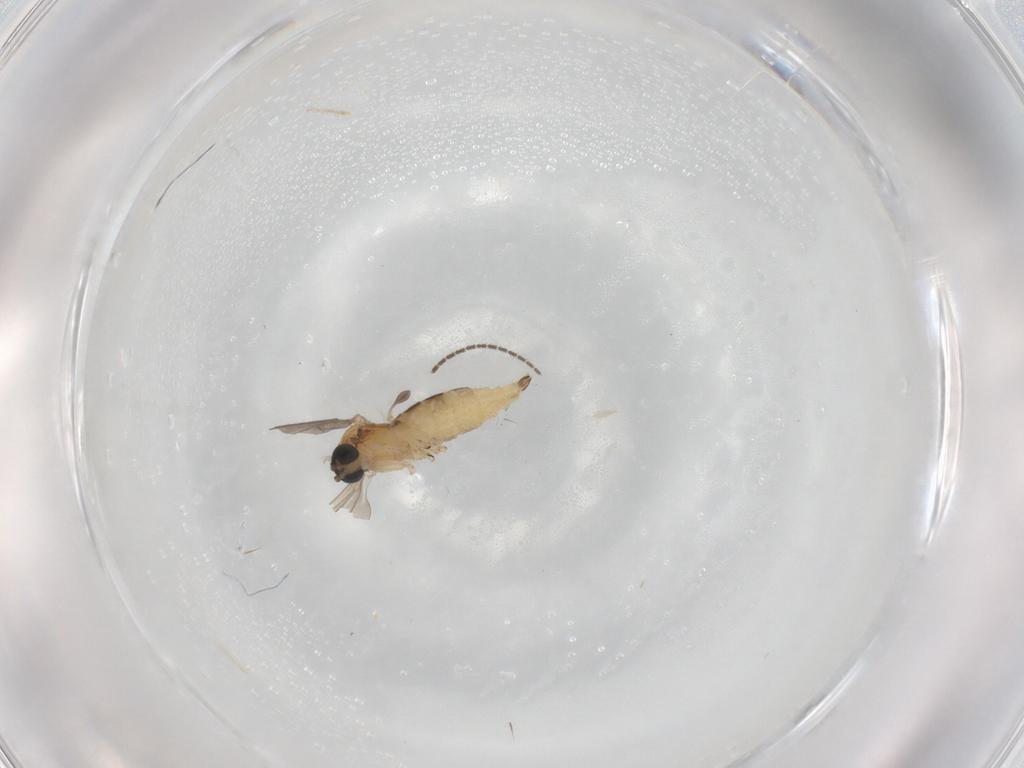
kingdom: Animalia
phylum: Arthropoda
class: Insecta
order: Diptera
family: Sciaridae
